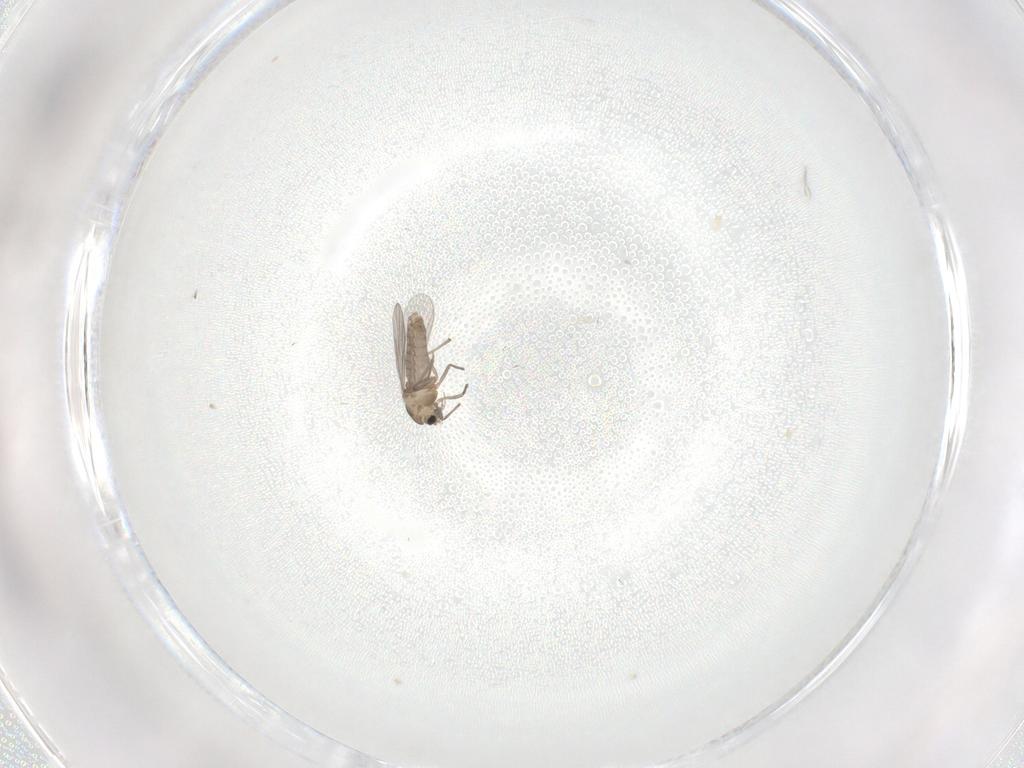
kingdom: Animalia
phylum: Arthropoda
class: Insecta
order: Diptera
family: Chironomidae
